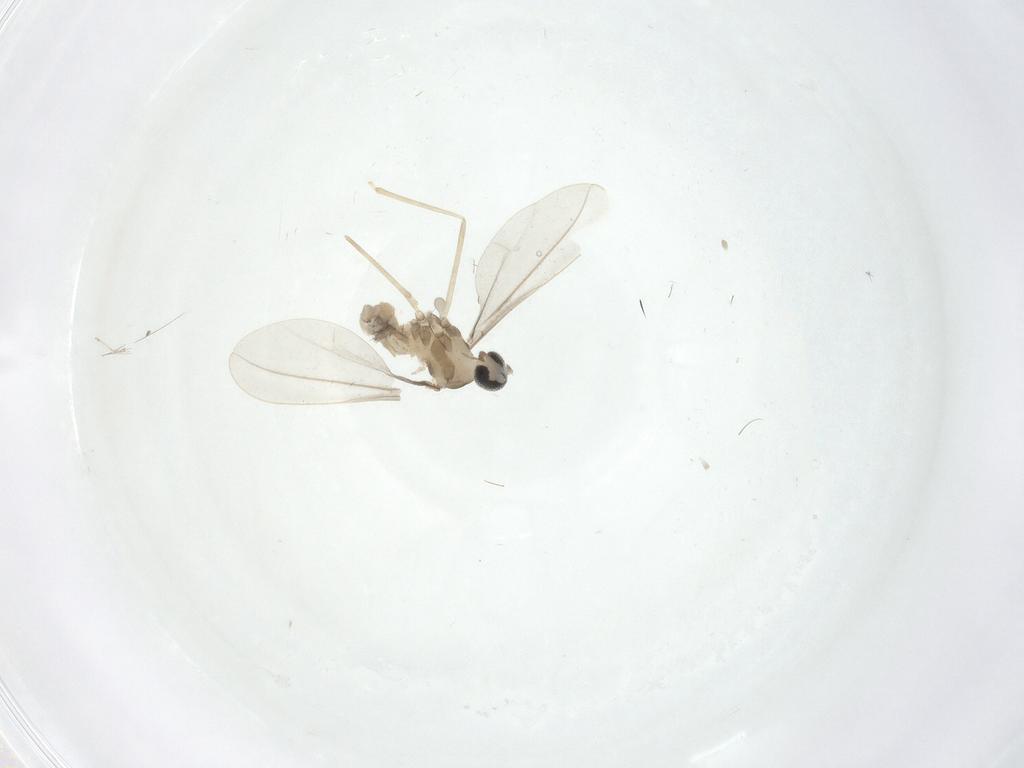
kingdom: Animalia
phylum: Arthropoda
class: Insecta
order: Diptera
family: Cecidomyiidae
